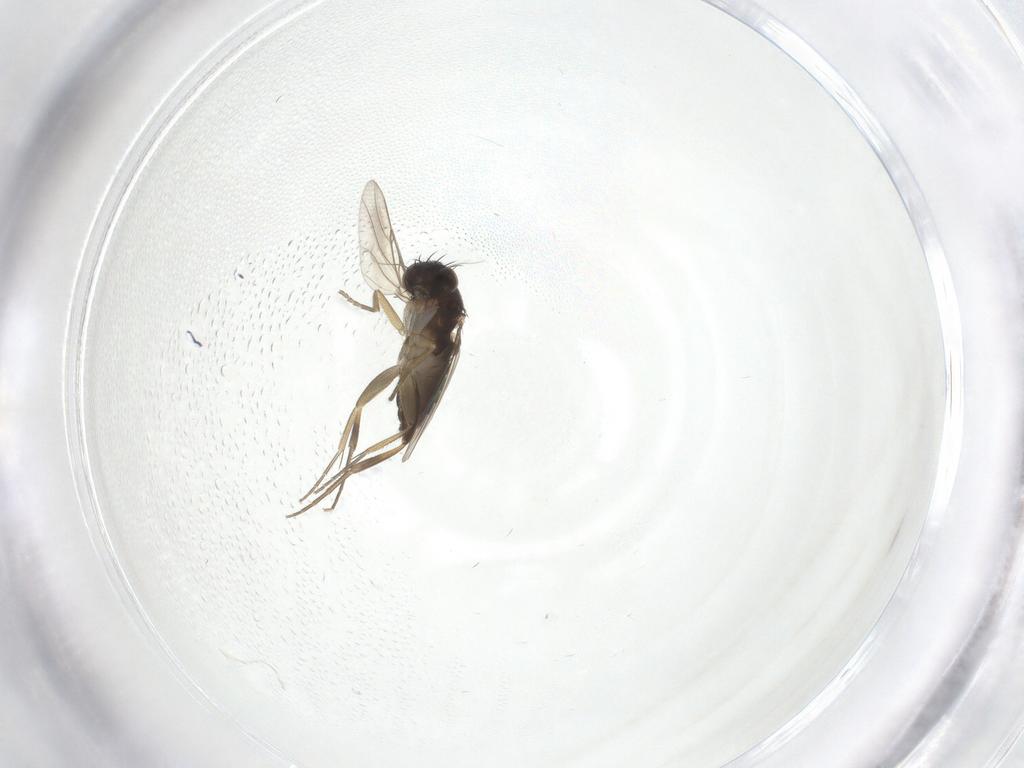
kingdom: Animalia
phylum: Arthropoda
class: Insecta
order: Diptera
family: Phoridae
